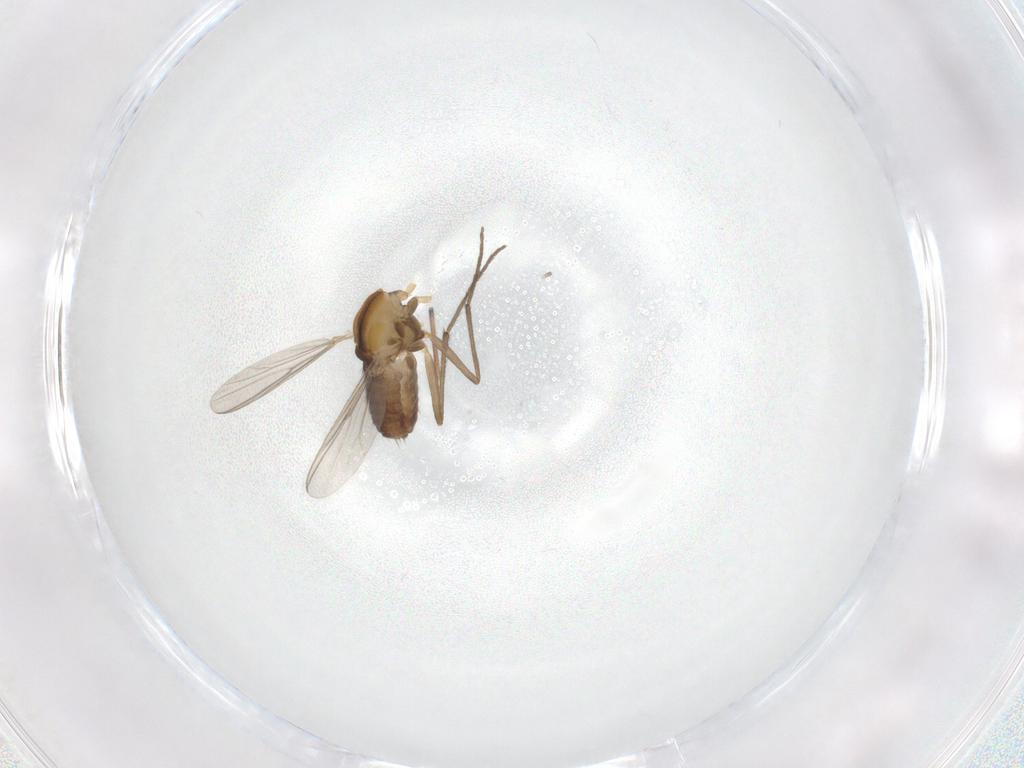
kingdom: Animalia
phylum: Arthropoda
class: Insecta
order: Diptera
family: Chironomidae
